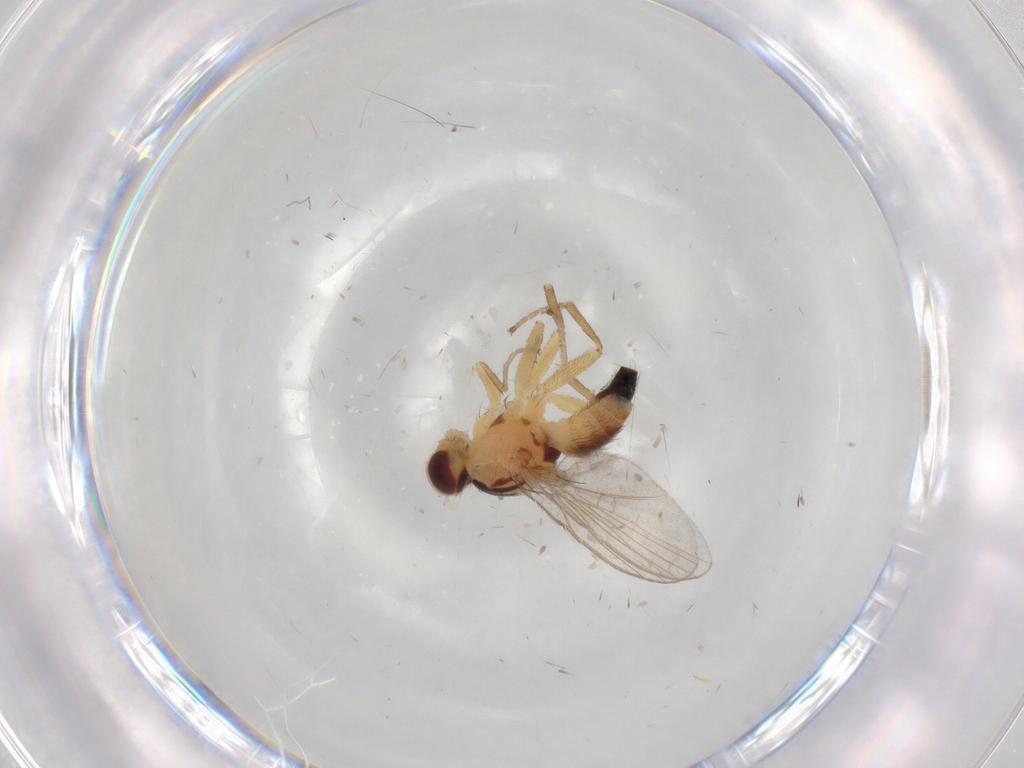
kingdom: Animalia
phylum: Arthropoda
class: Insecta
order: Diptera
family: Agromyzidae
